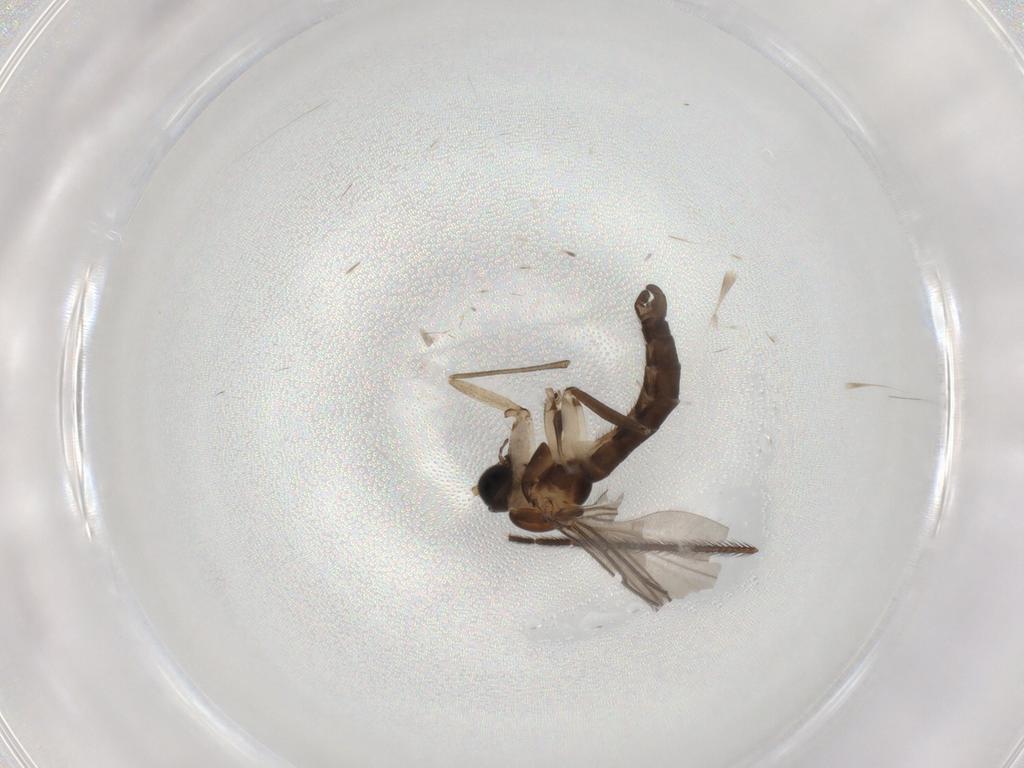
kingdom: Animalia
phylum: Arthropoda
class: Insecta
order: Diptera
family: Sciaridae
